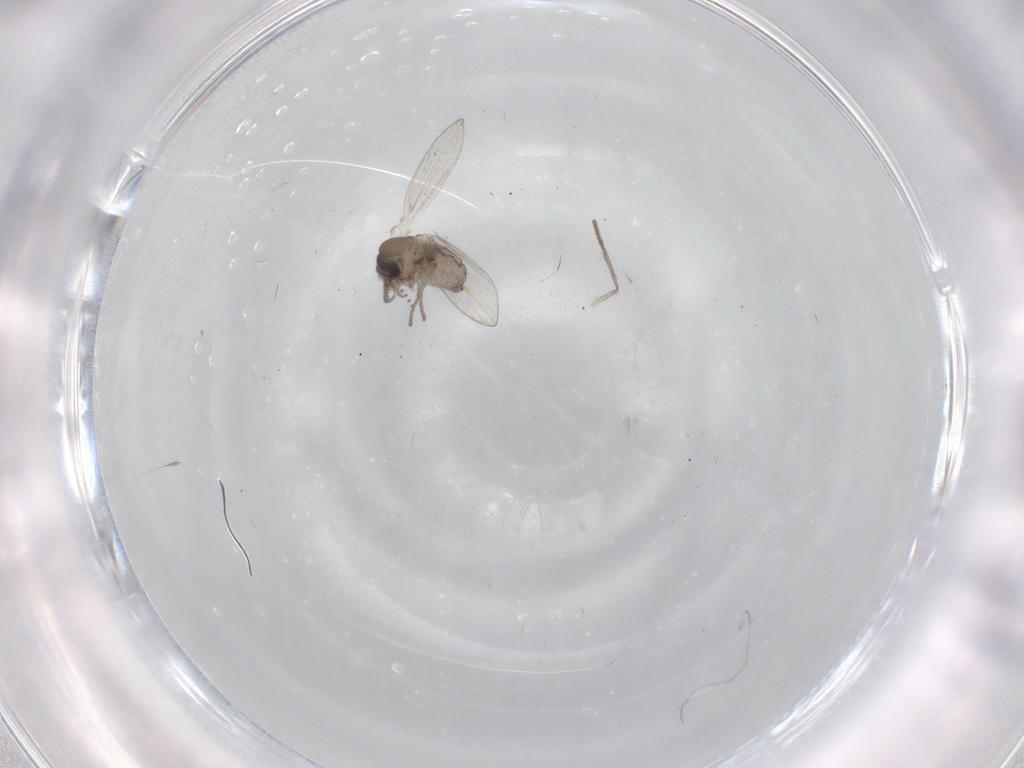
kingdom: Animalia
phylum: Arthropoda
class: Insecta
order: Diptera
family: Psychodidae
